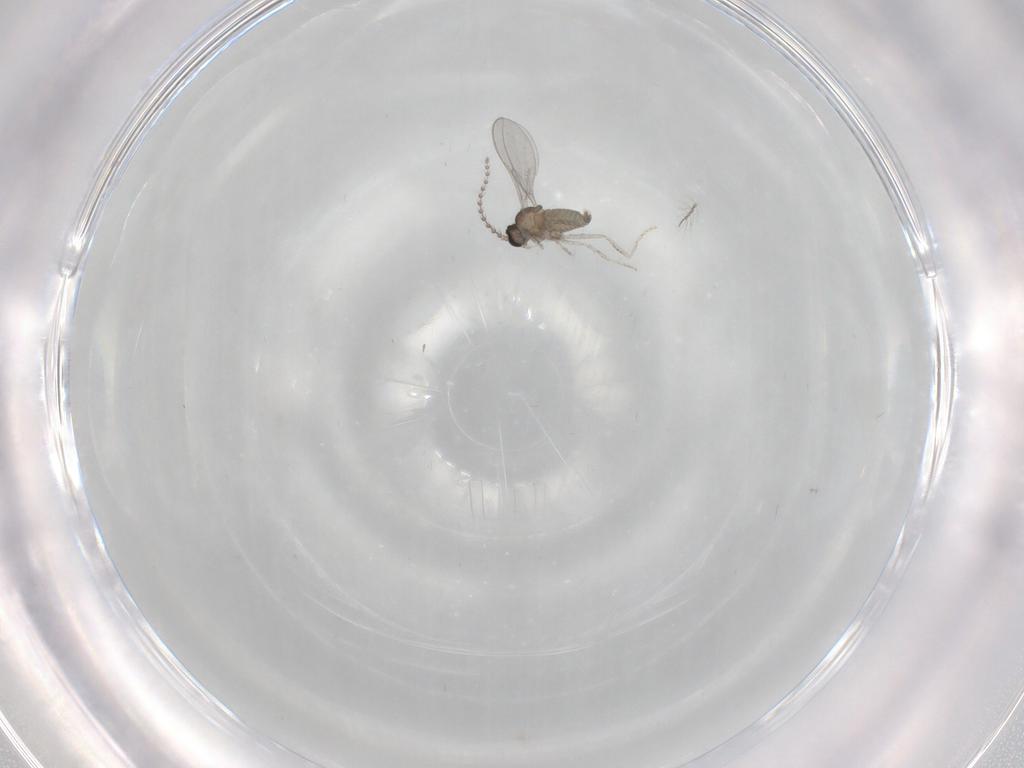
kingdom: Animalia
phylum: Arthropoda
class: Insecta
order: Diptera
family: Cecidomyiidae
